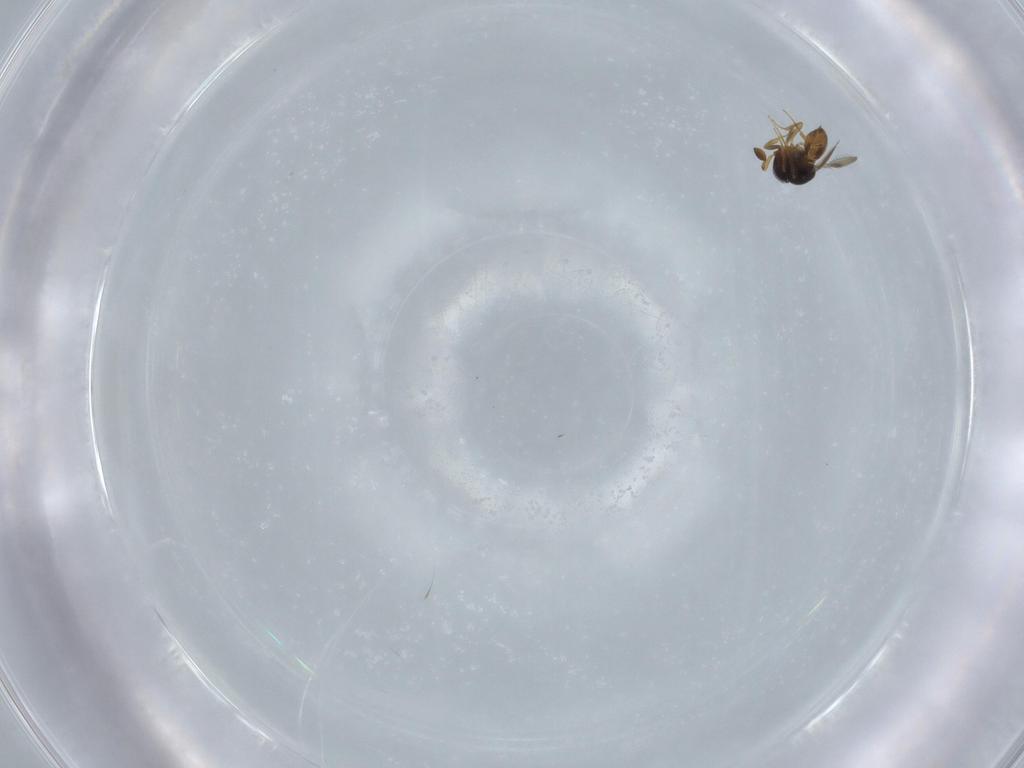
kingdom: Animalia
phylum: Arthropoda
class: Insecta
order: Hymenoptera
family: Scelionidae
